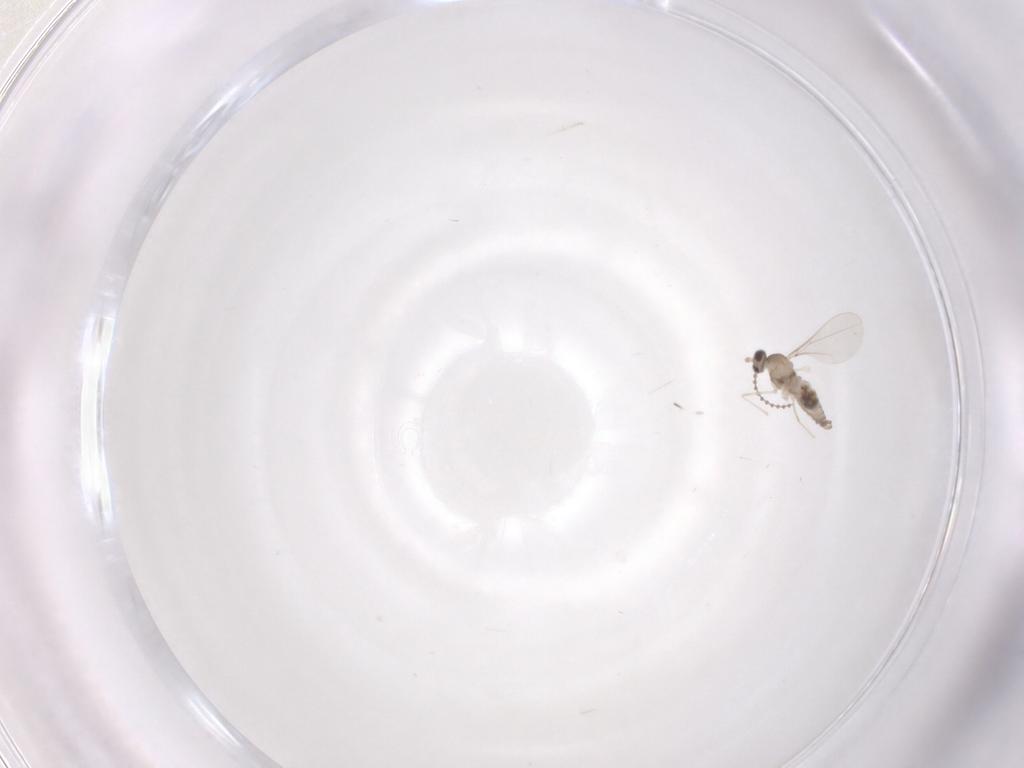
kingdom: Animalia
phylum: Arthropoda
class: Insecta
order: Diptera
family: Cecidomyiidae
